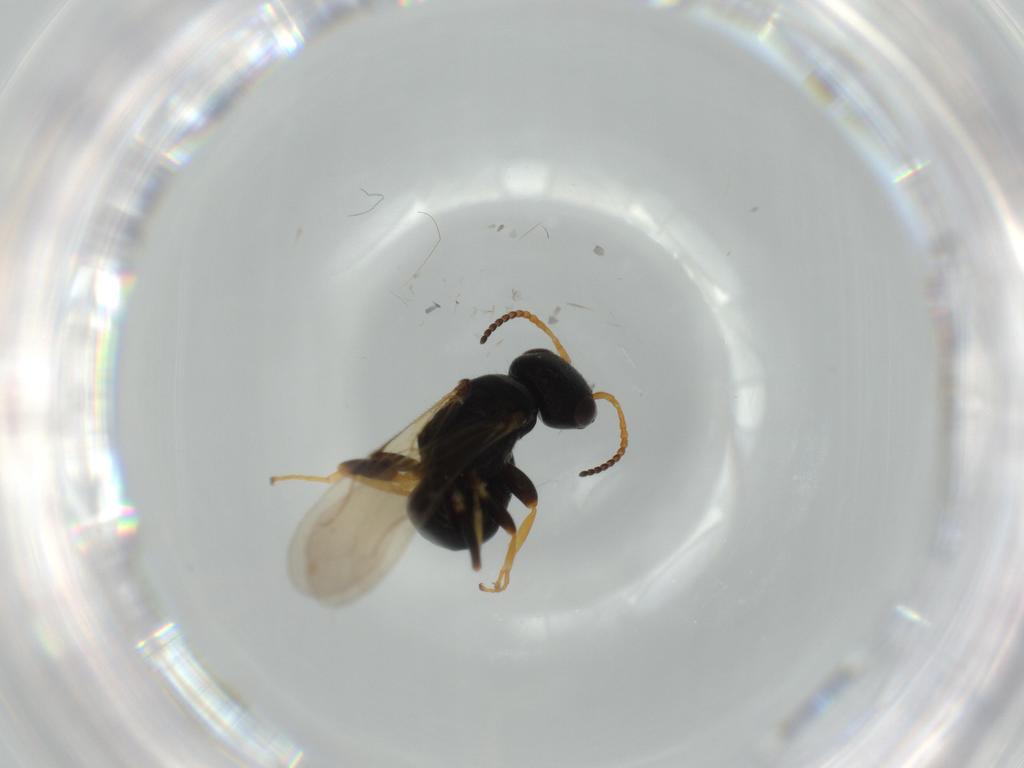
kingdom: Animalia
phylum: Arthropoda
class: Insecta
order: Hymenoptera
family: Bethylidae
